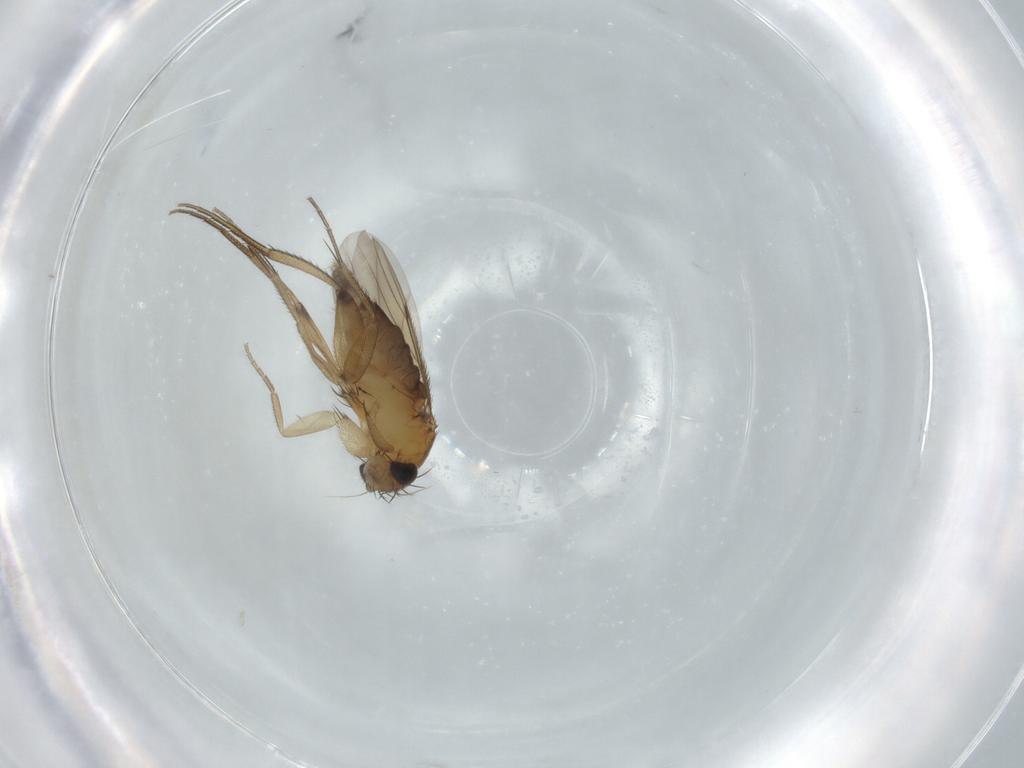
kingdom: Animalia
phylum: Arthropoda
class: Insecta
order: Diptera
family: Phoridae
